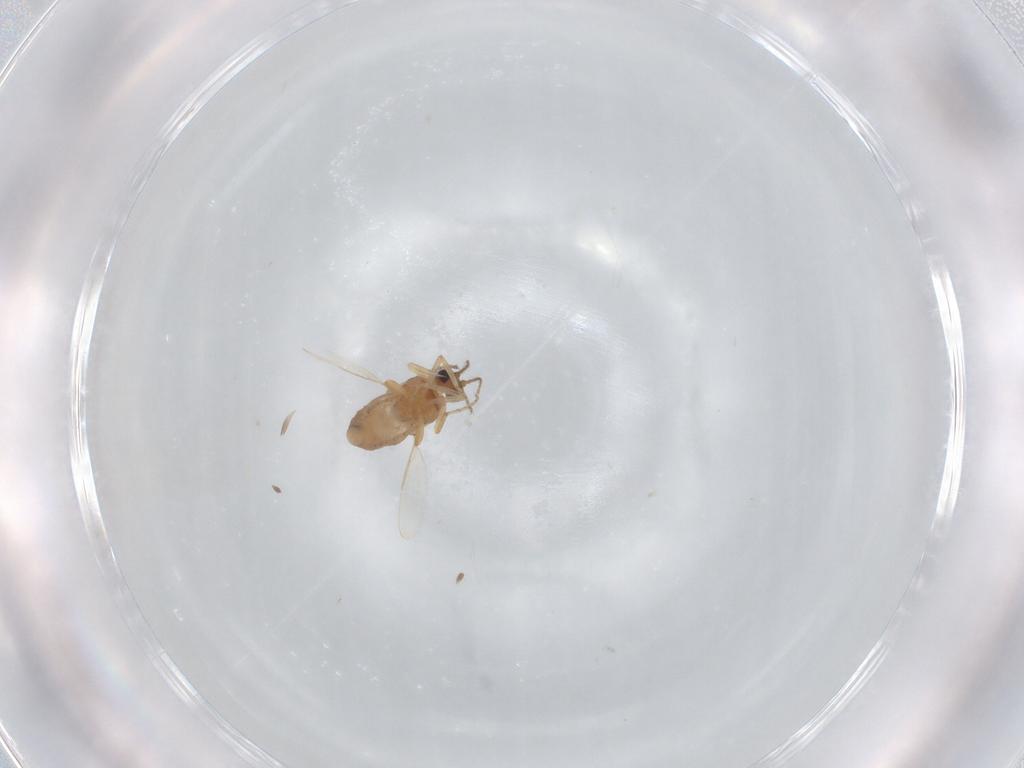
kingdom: Animalia
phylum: Arthropoda
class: Insecta
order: Diptera
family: Ceratopogonidae
